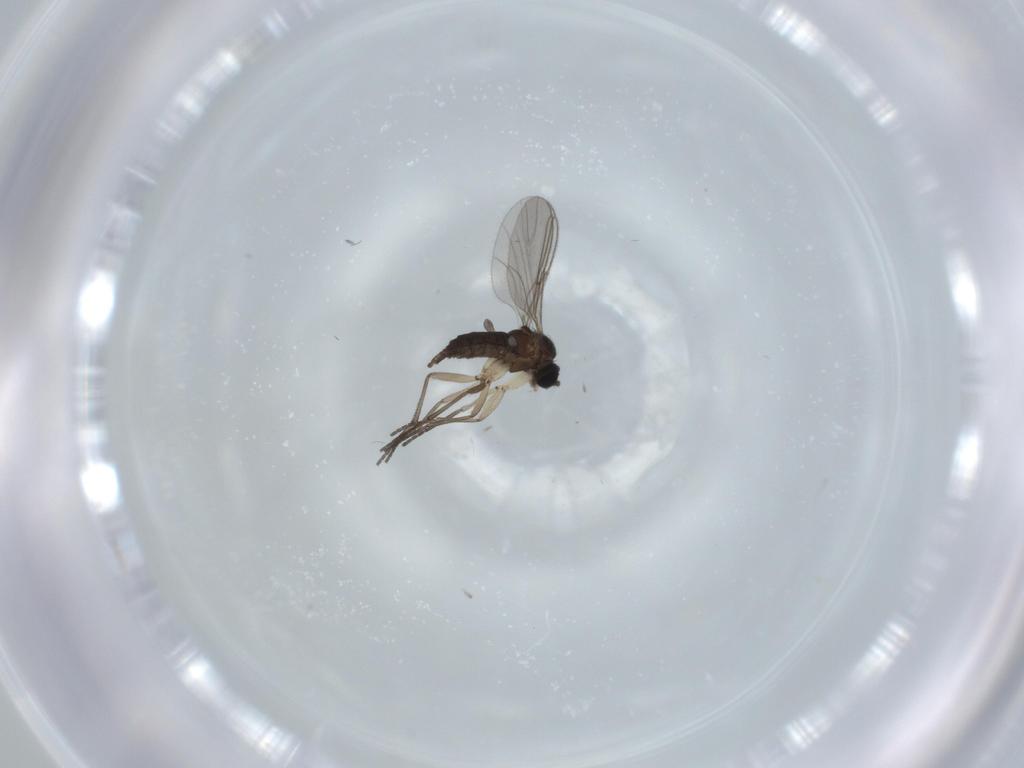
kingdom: Animalia
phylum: Arthropoda
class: Insecta
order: Diptera
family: Sciaridae
